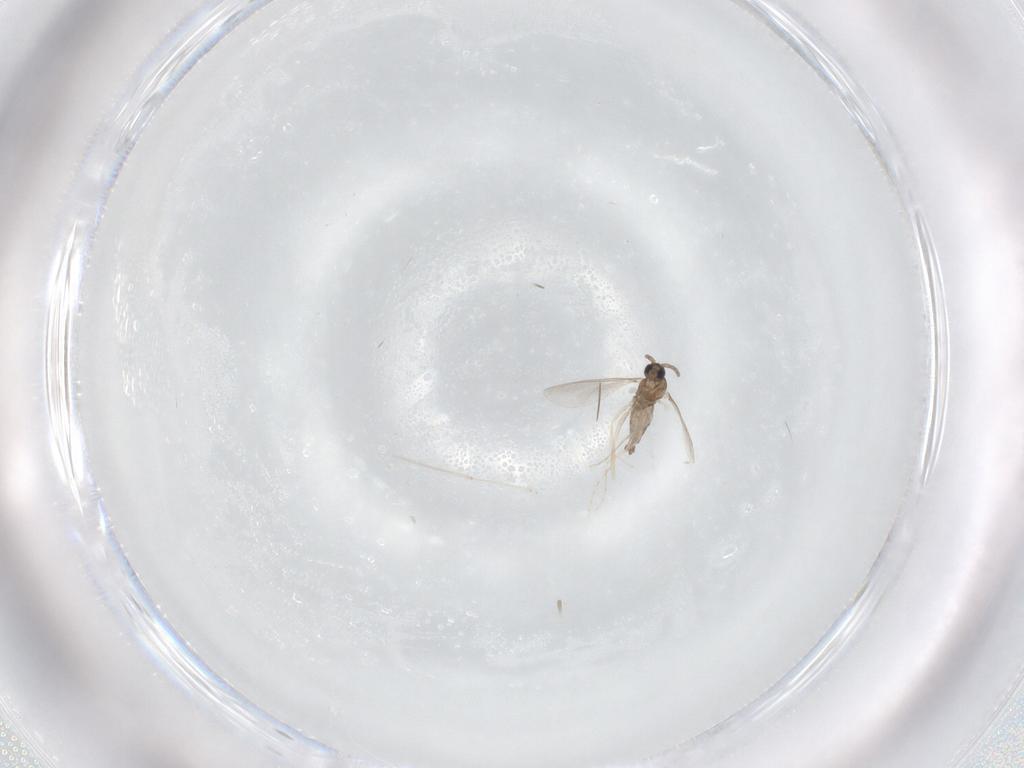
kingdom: Animalia
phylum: Arthropoda
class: Insecta
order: Diptera
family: Cecidomyiidae
